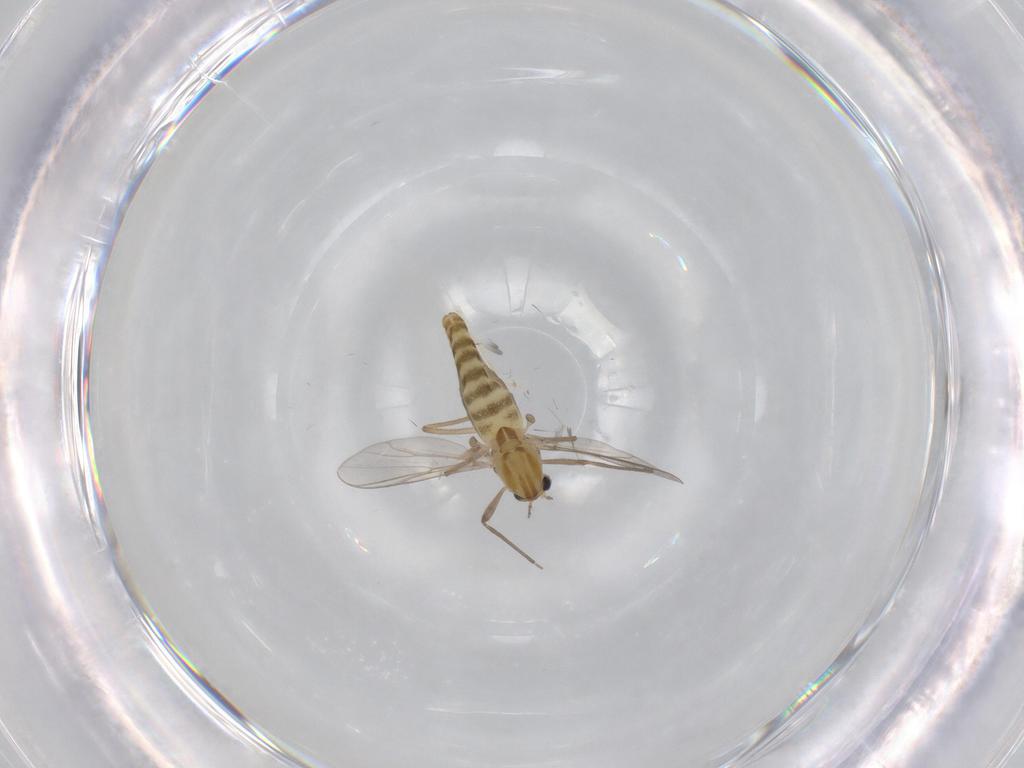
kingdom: Animalia
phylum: Arthropoda
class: Insecta
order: Diptera
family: Chironomidae
